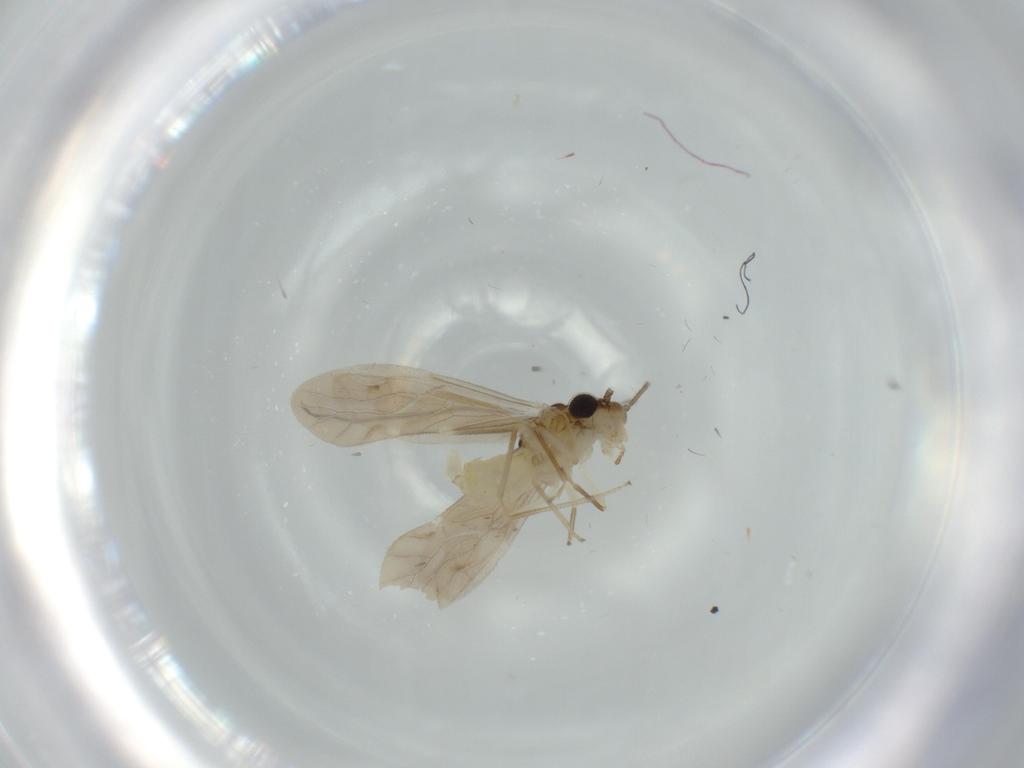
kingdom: Animalia
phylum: Arthropoda
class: Insecta
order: Psocodea
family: Caeciliusidae
